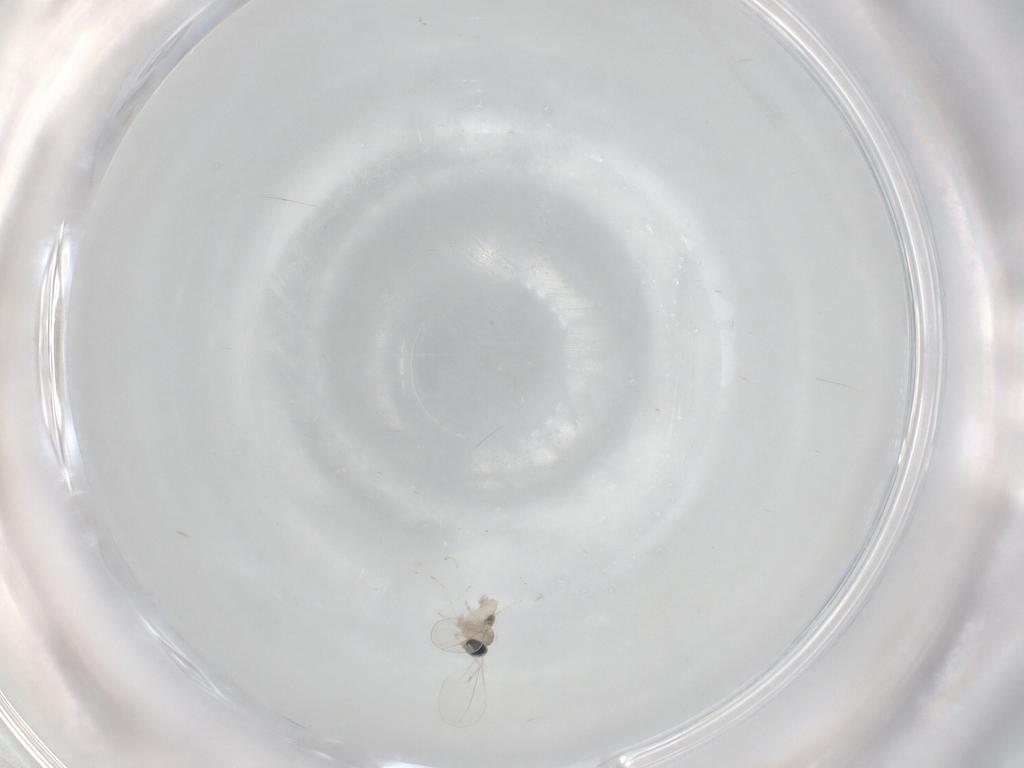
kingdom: Animalia
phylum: Arthropoda
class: Insecta
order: Diptera
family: Cecidomyiidae
